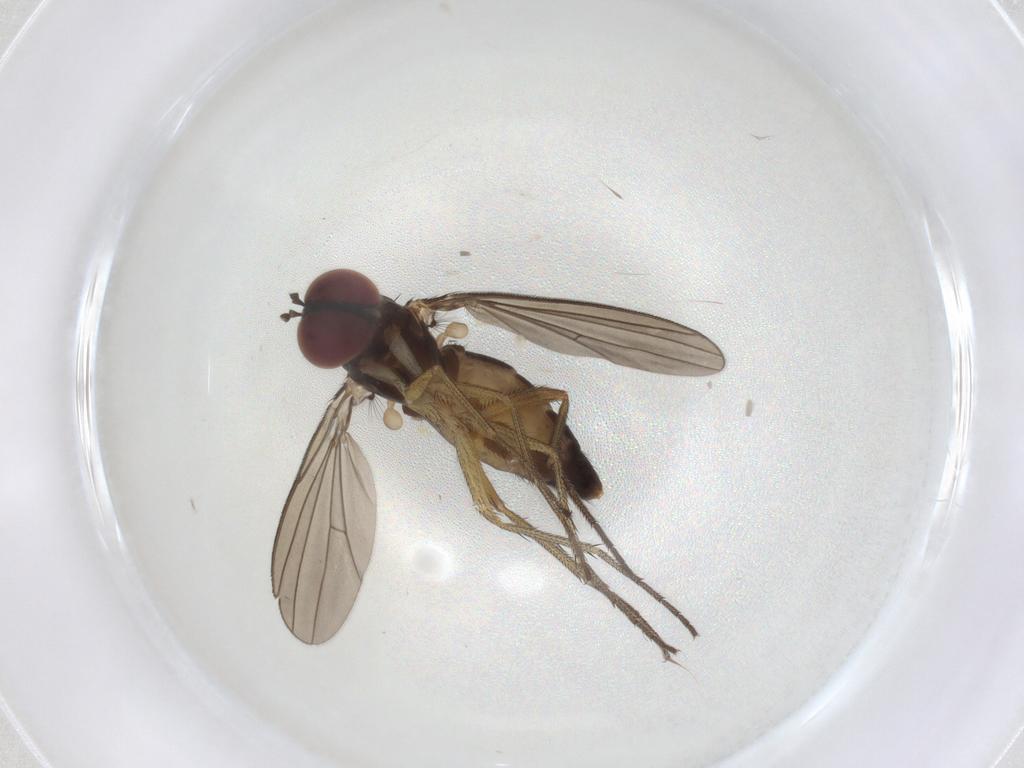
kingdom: Animalia
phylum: Arthropoda
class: Insecta
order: Diptera
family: Dolichopodidae
